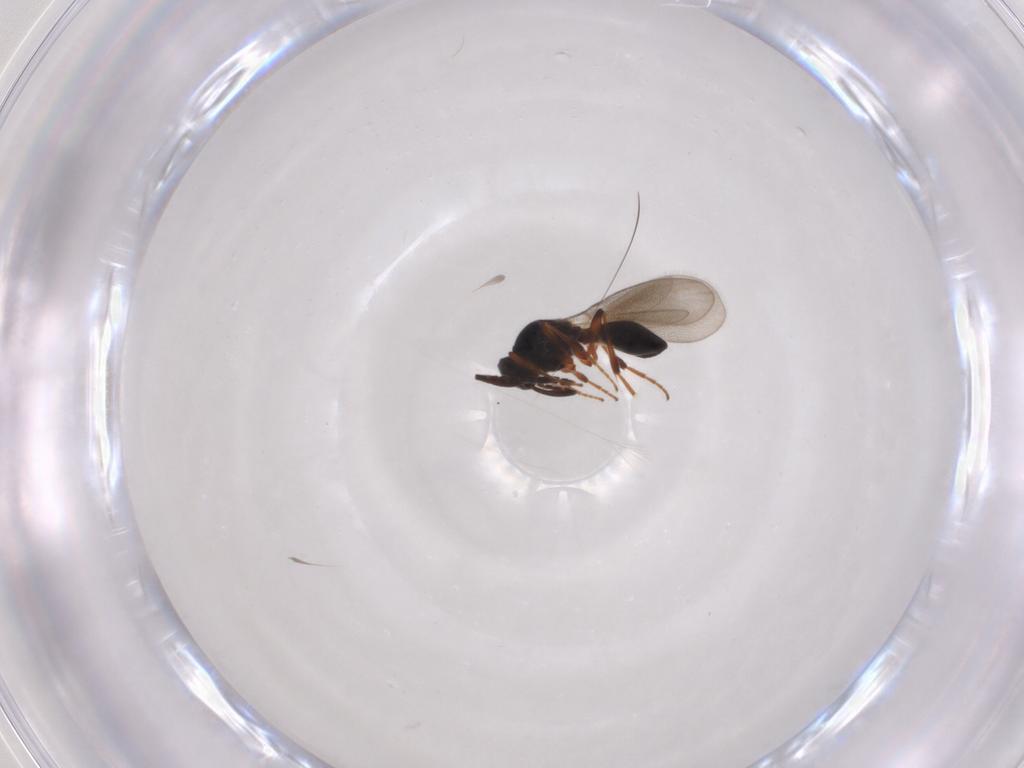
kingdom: Animalia
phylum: Arthropoda
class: Insecta
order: Hymenoptera
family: Platygastridae
